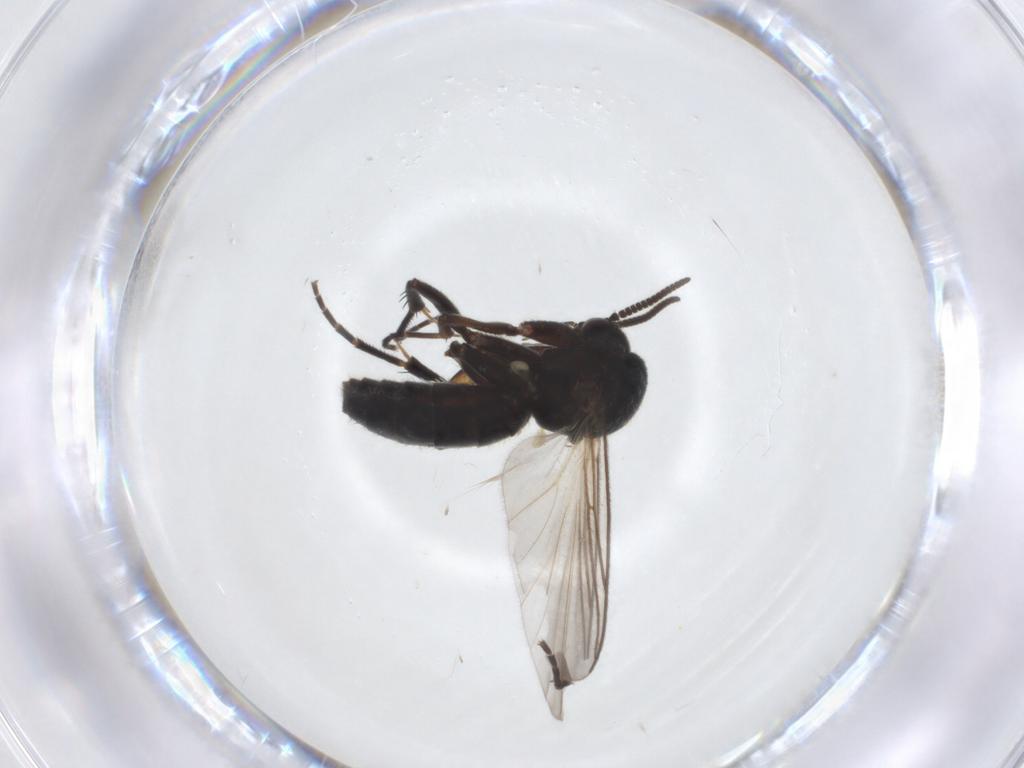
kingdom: Animalia
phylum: Arthropoda
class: Insecta
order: Diptera
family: Mycetophilidae
